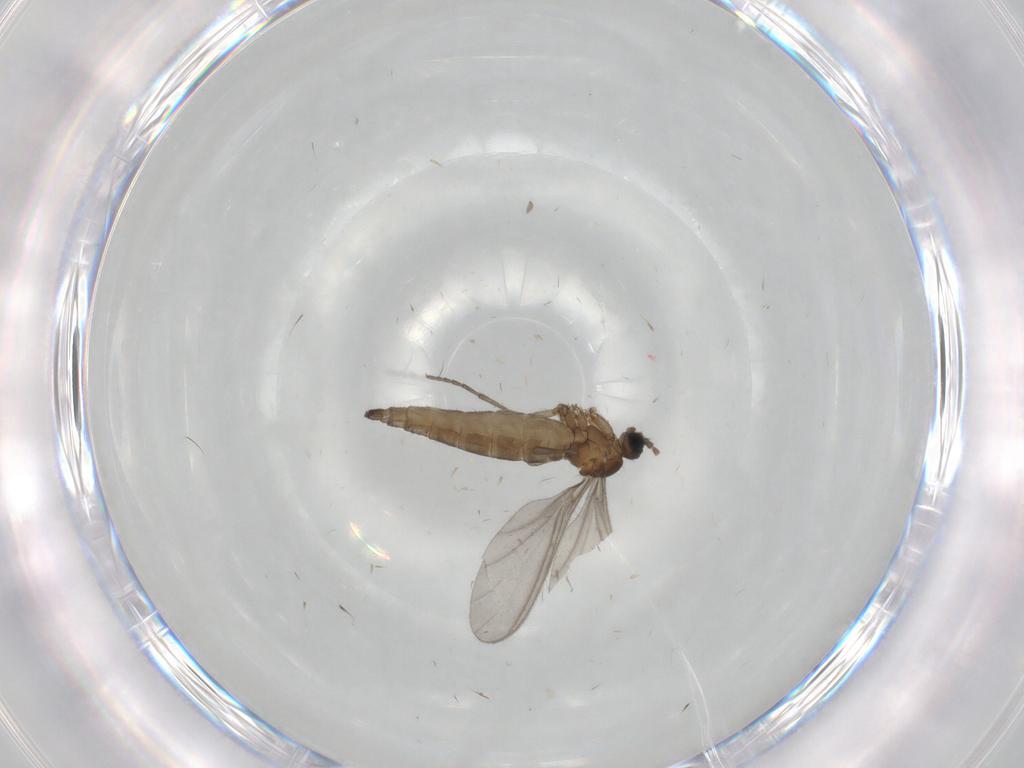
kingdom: Animalia
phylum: Arthropoda
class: Insecta
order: Diptera
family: Sciaridae
